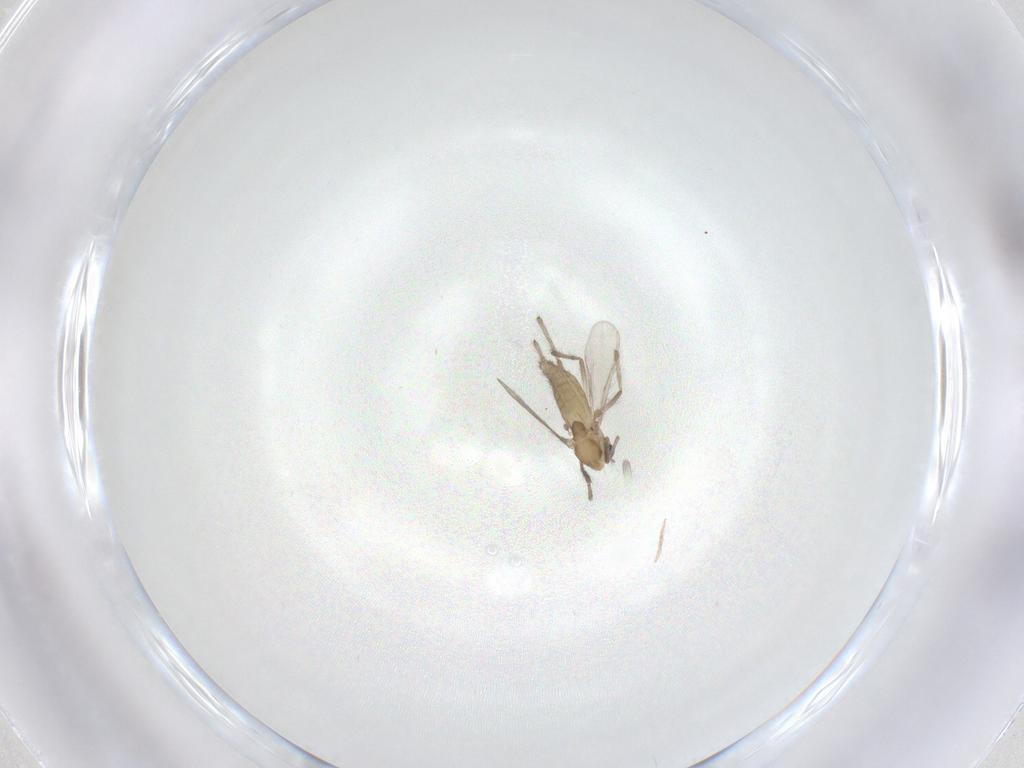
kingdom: Animalia
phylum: Arthropoda
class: Insecta
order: Diptera
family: Chironomidae
